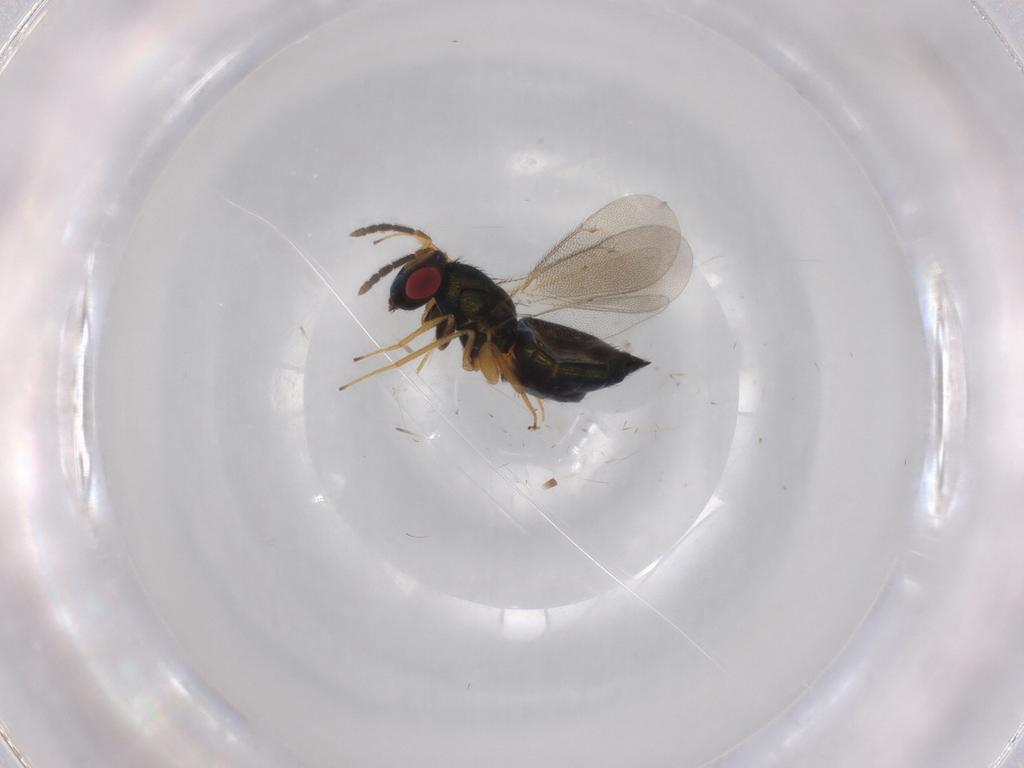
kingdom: Animalia
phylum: Arthropoda
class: Insecta
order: Hymenoptera
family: Eulophidae
